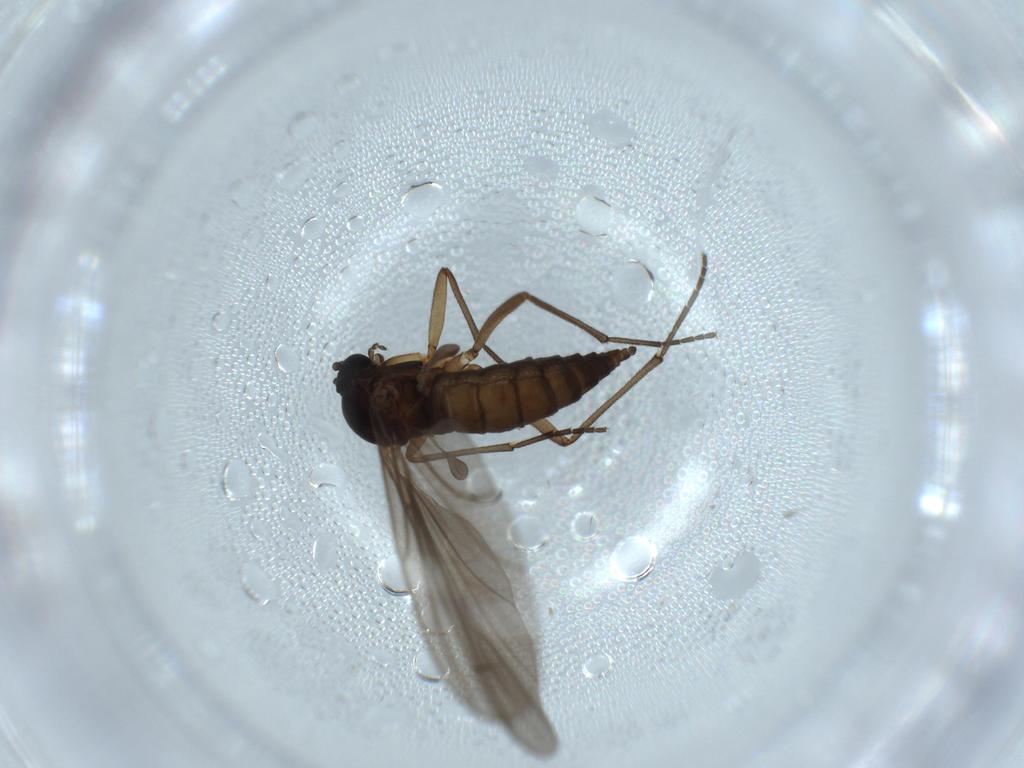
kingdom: Animalia
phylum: Arthropoda
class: Insecta
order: Diptera
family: Sciaridae
